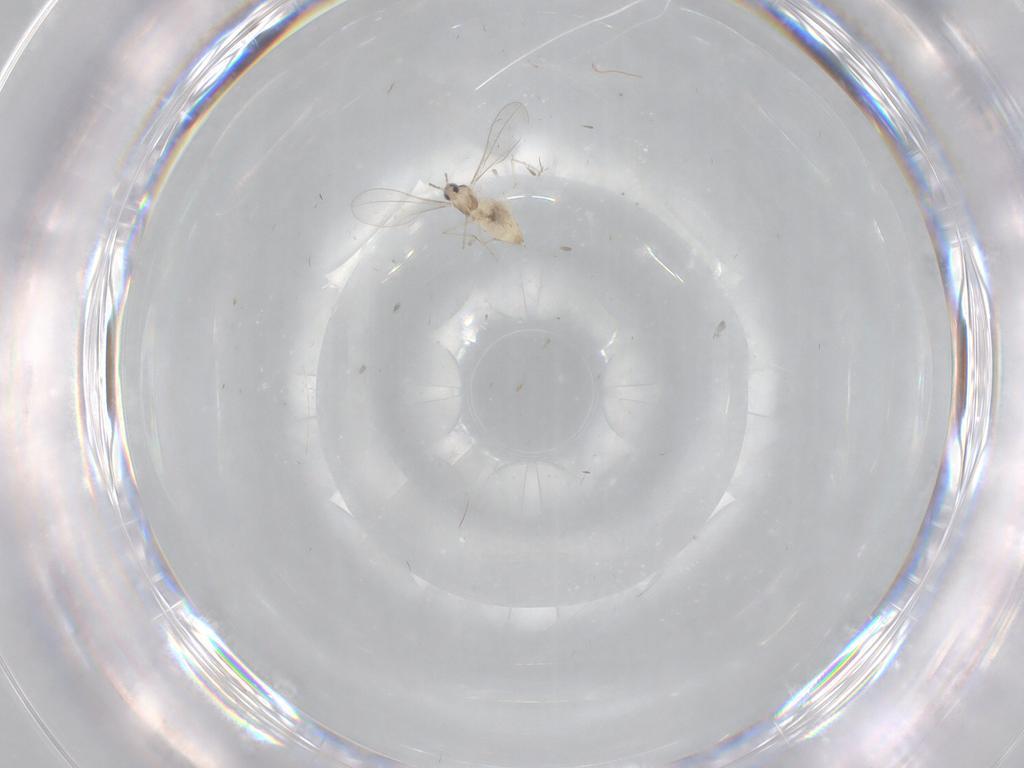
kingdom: Animalia
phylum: Arthropoda
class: Insecta
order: Diptera
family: Cecidomyiidae
